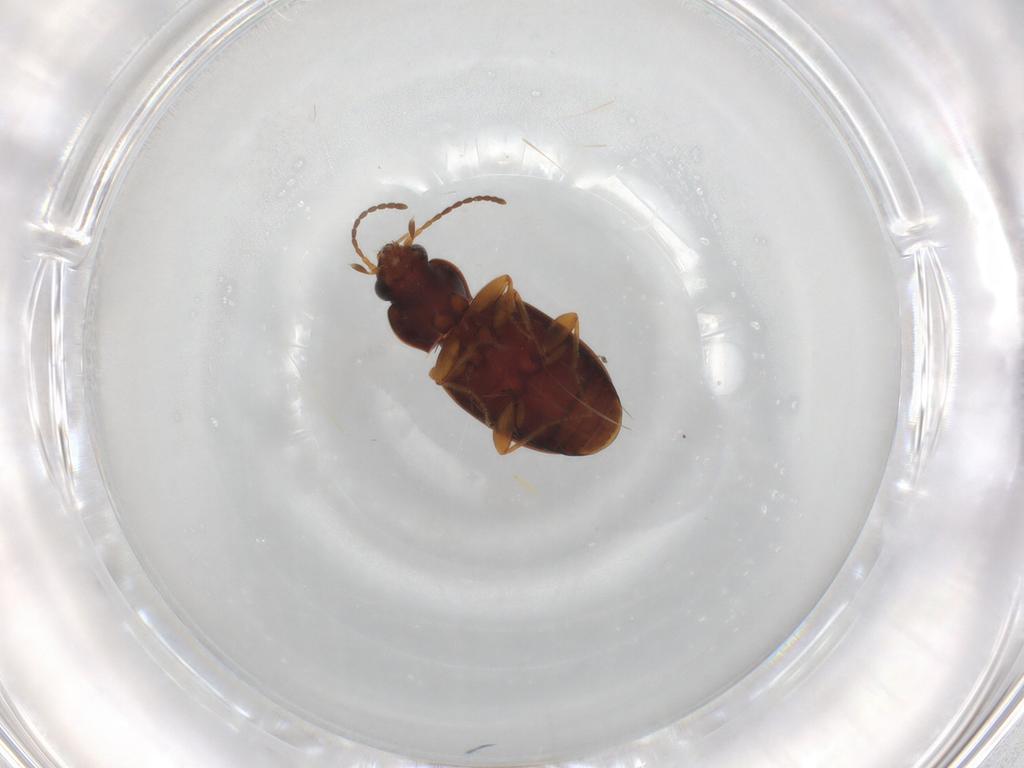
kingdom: Animalia
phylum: Arthropoda
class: Insecta
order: Coleoptera
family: Carabidae
